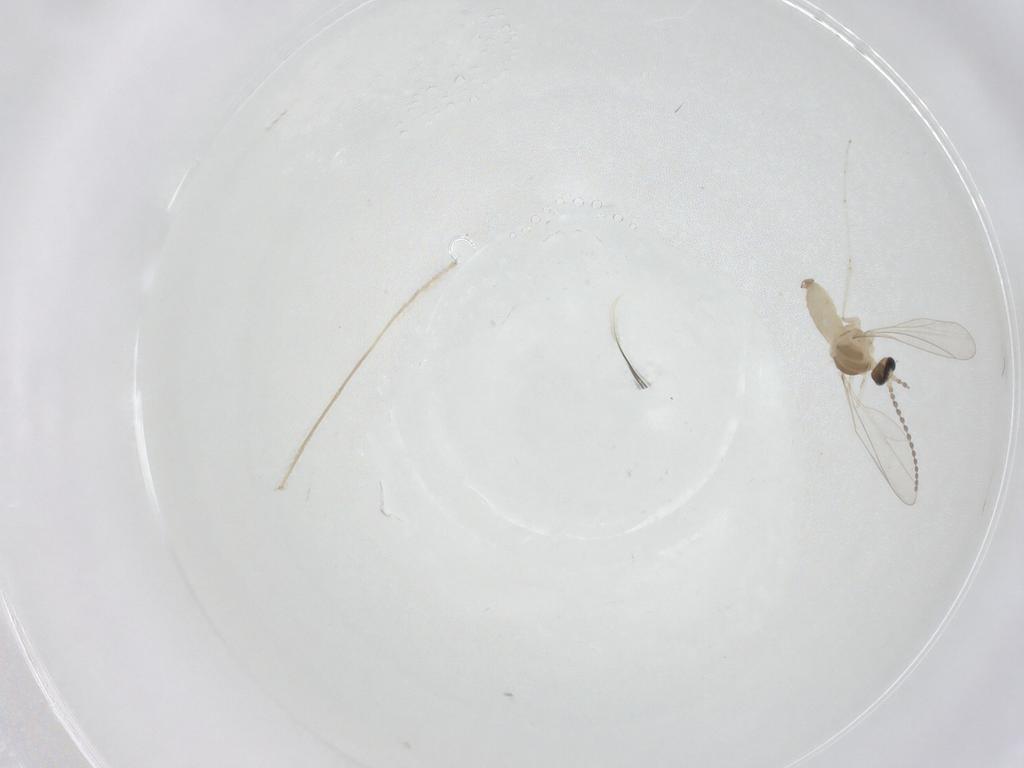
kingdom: Animalia
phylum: Arthropoda
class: Insecta
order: Diptera
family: Cecidomyiidae
